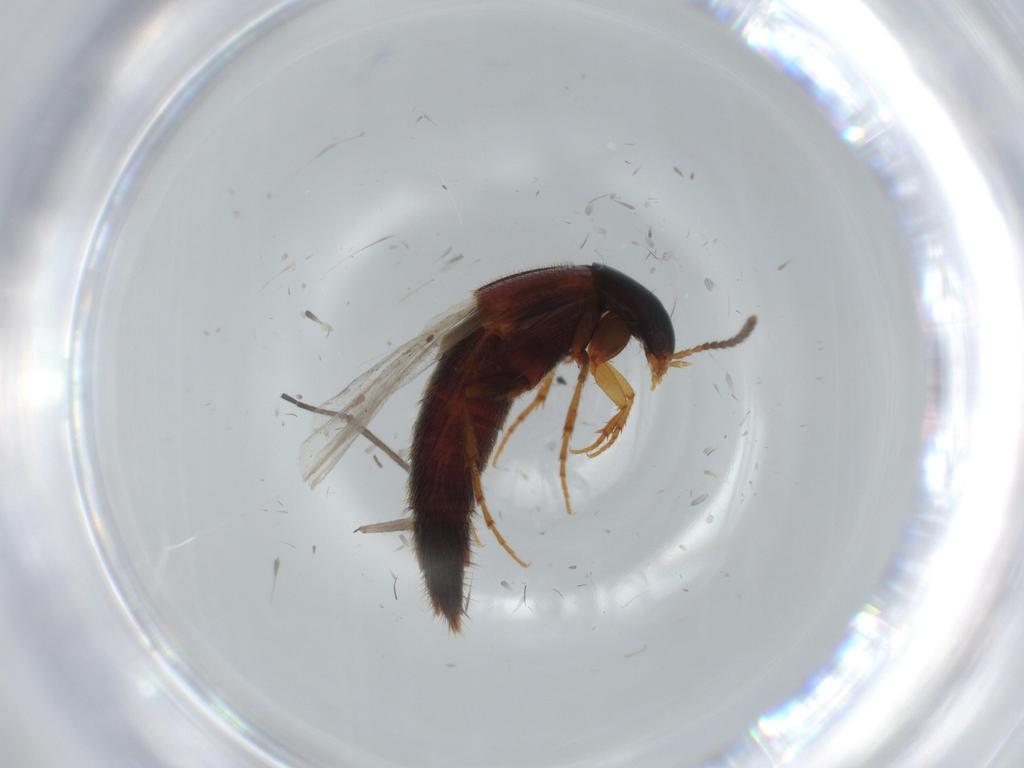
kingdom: Animalia
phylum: Arthropoda
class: Insecta
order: Coleoptera
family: Staphylinidae
